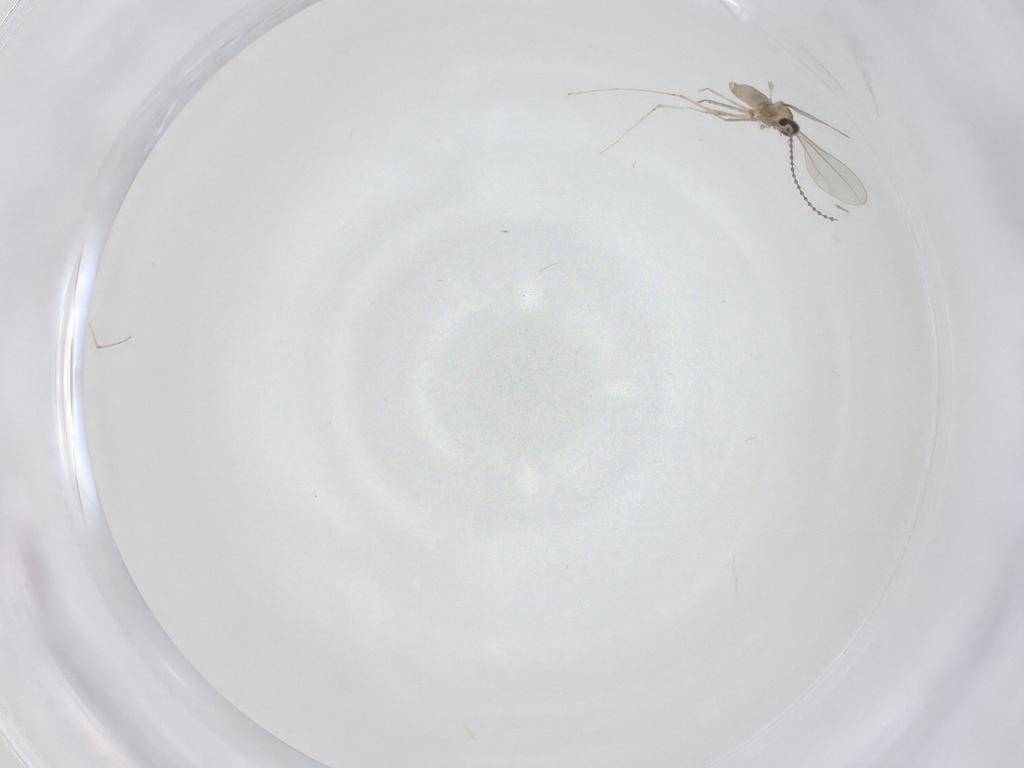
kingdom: Animalia
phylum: Arthropoda
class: Insecta
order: Diptera
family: Cecidomyiidae
